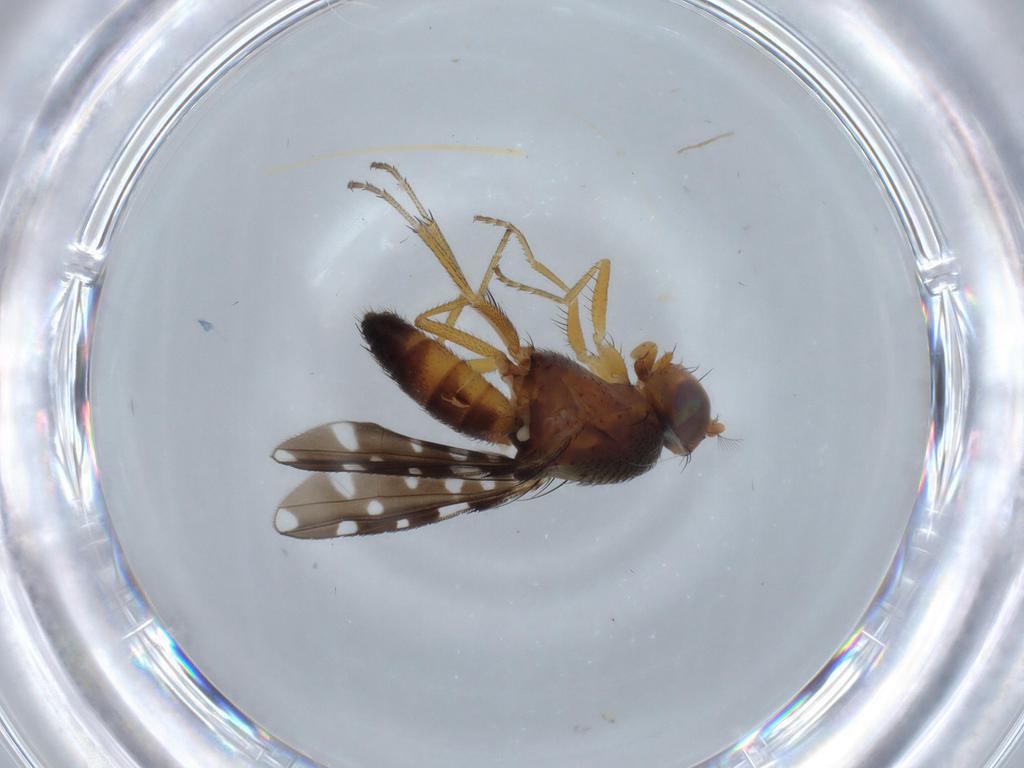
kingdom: Animalia
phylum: Arthropoda
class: Insecta
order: Diptera
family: Ephydridae
